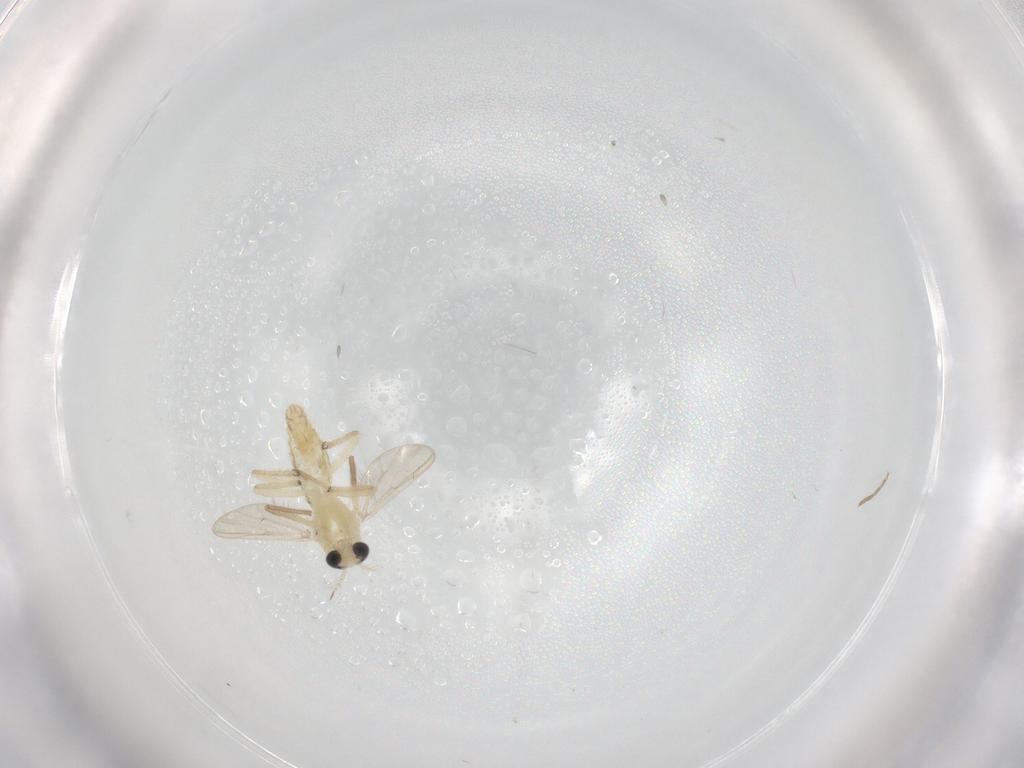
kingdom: Animalia
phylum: Arthropoda
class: Insecta
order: Diptera
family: Chironomidae
